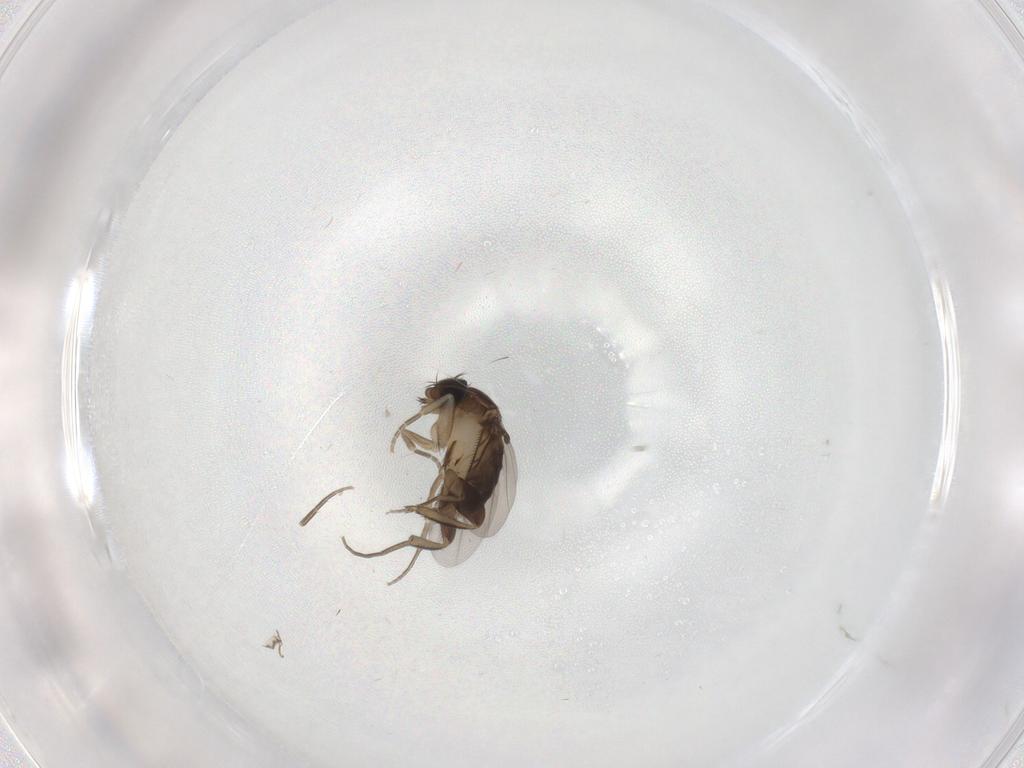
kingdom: Animalia
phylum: Arthropoda
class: Insecta
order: Diptera
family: Phoridae
